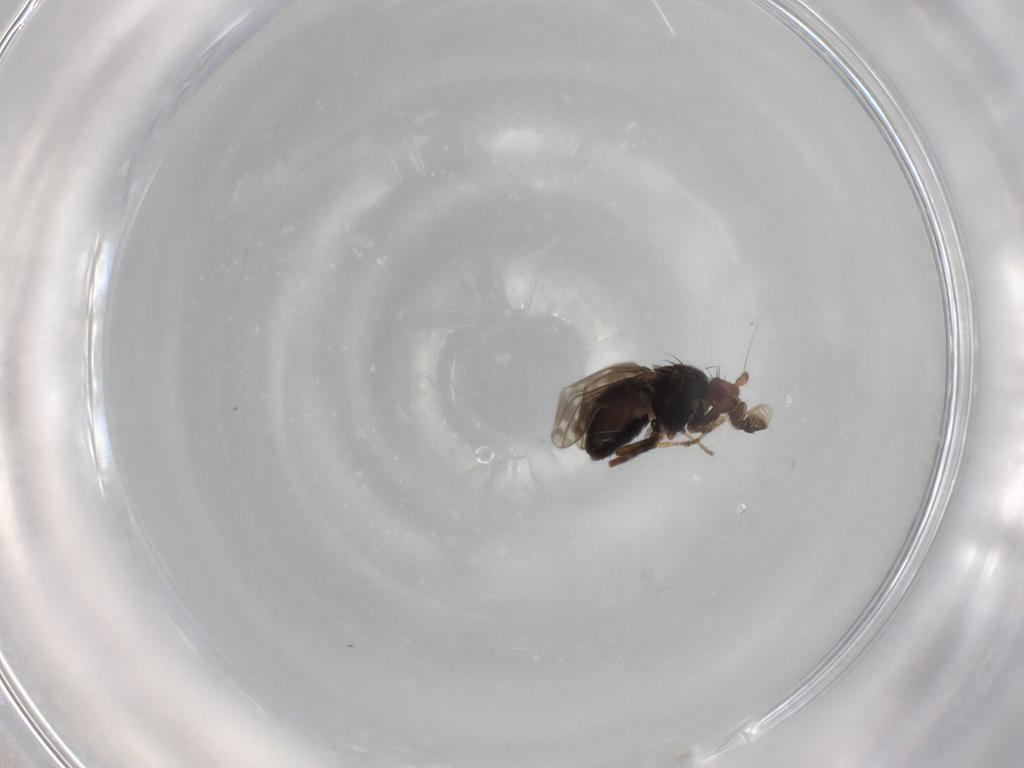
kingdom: Animalia
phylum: Arthropoda
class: Insecta
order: Diptera
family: Sphaeroceridae
